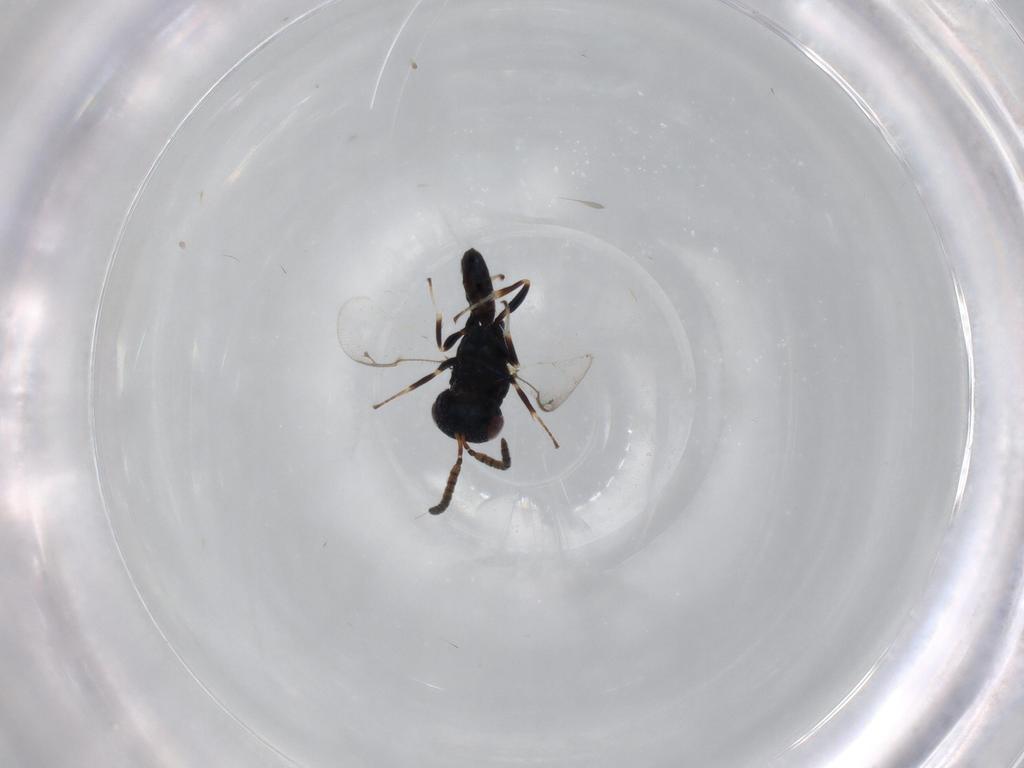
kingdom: Animalia
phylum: Arthropoda
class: Insecta
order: Hymenoptera
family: Pteromalidae
